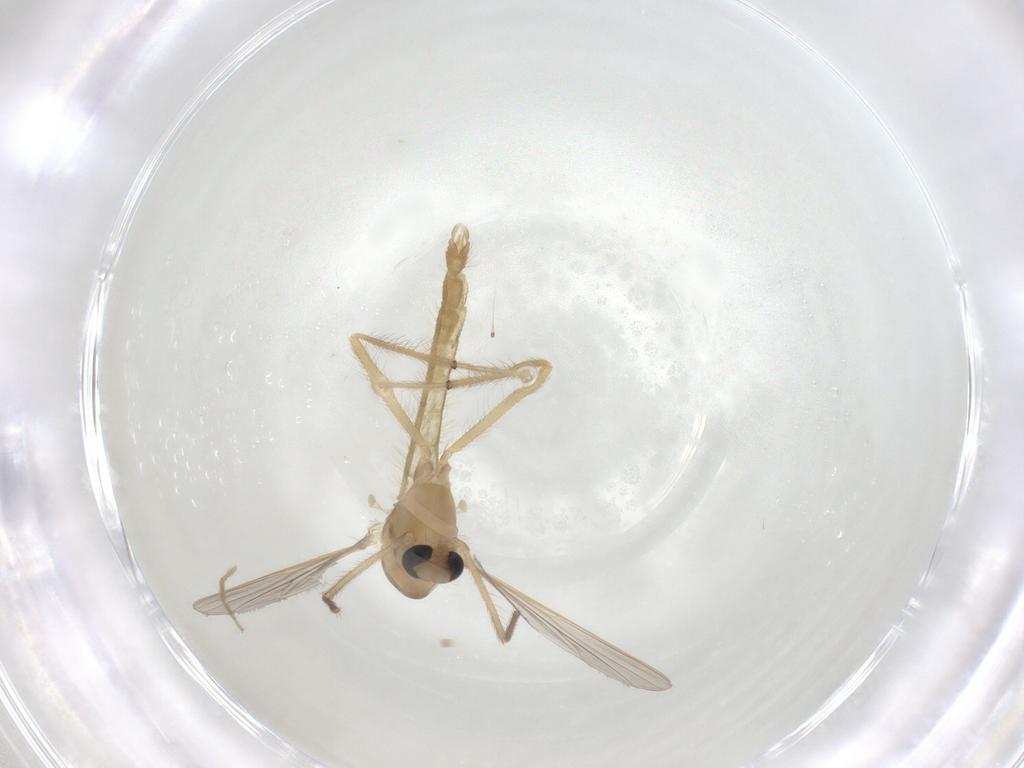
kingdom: Animalia
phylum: Arthropoda
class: Insecta
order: Diptera
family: Chironomidae
